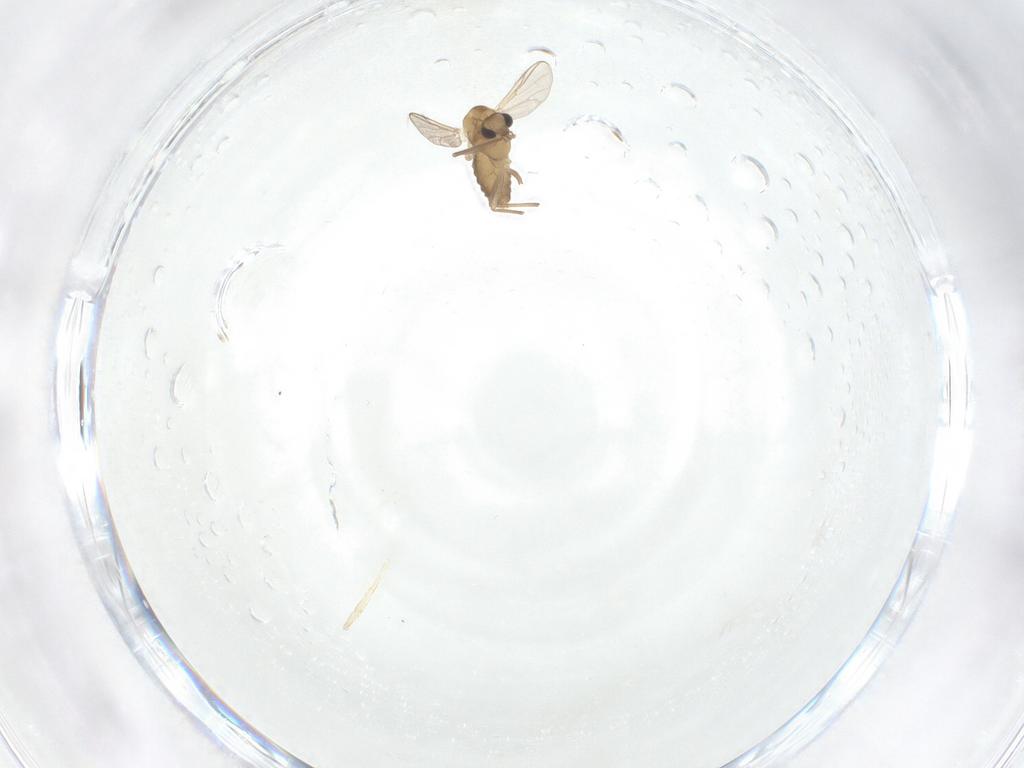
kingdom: Animalia
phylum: Arthropoda
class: Insecta
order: Diptera
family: Chironomidae
